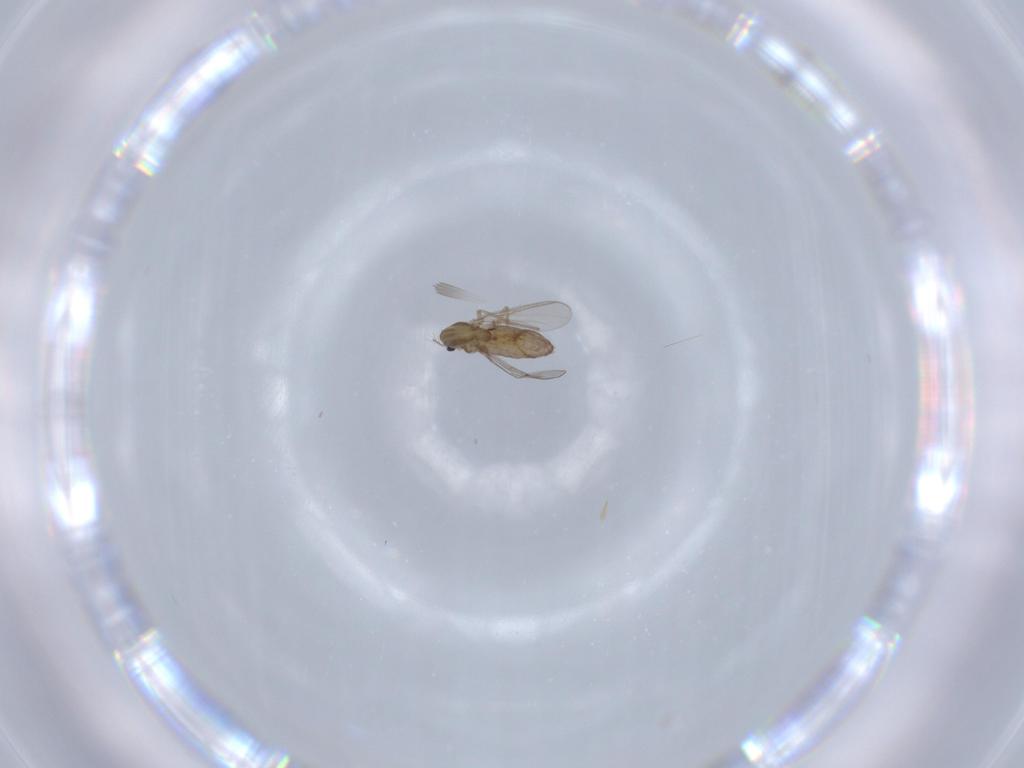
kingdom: Animalia
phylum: Arthropoda
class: Insecta
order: Diptera
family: Chironomidae
